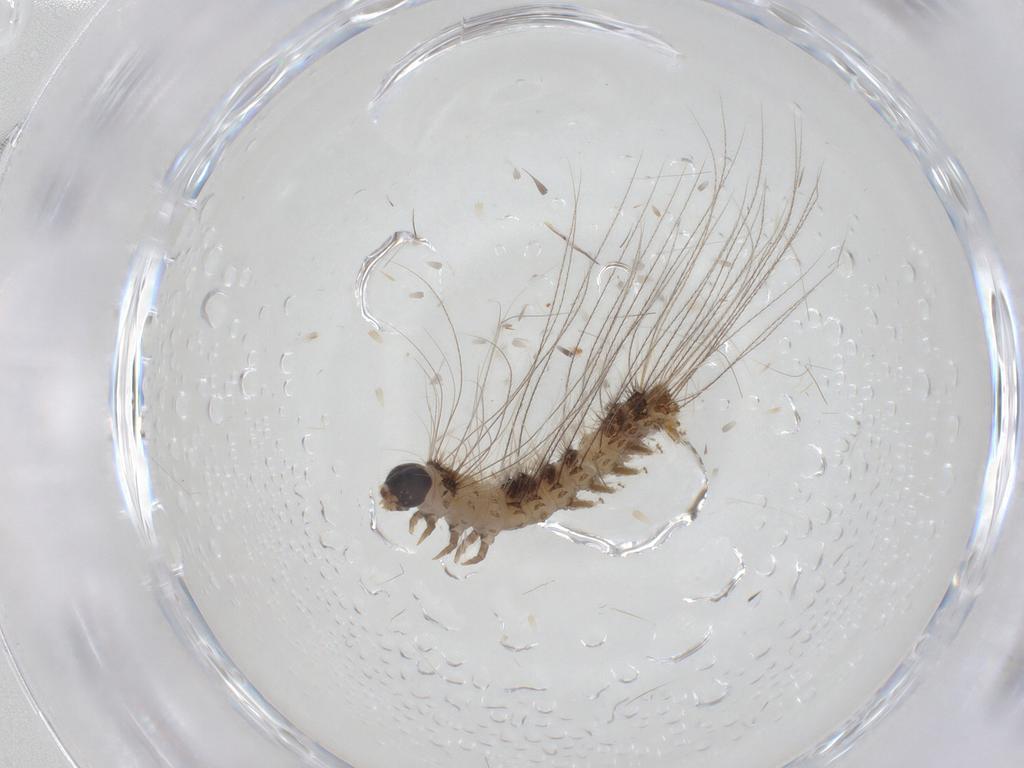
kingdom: Animalia
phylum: Arthropoda
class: Insecta
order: Lepidoptera
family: Erebidae
